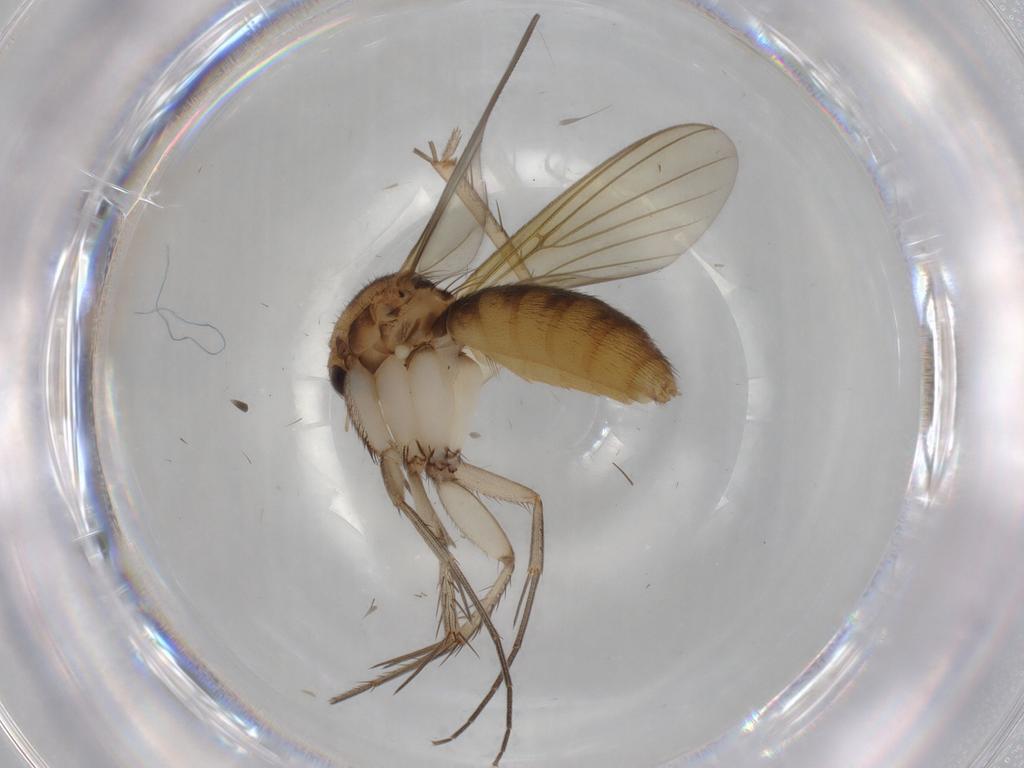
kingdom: Animalia
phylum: Arthropoda
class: Insecta
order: Diptera
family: Mycetophilidae
